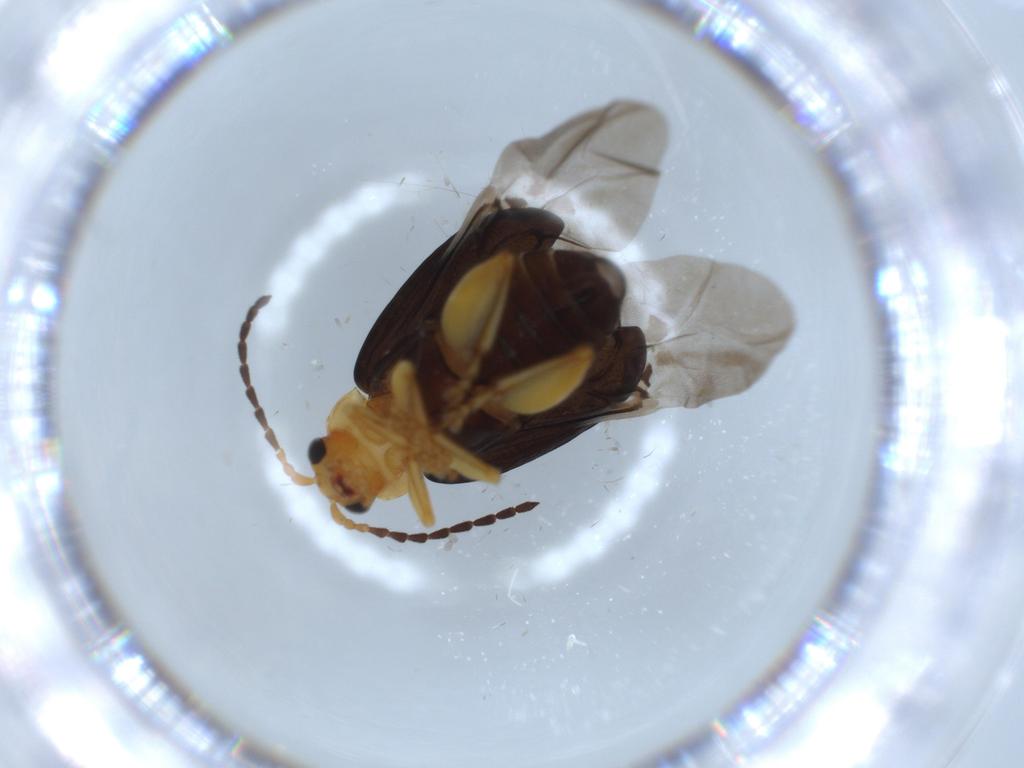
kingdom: Animalia
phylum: Arthropoda
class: Insecta
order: Coleoptera
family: Chrysomelidae
